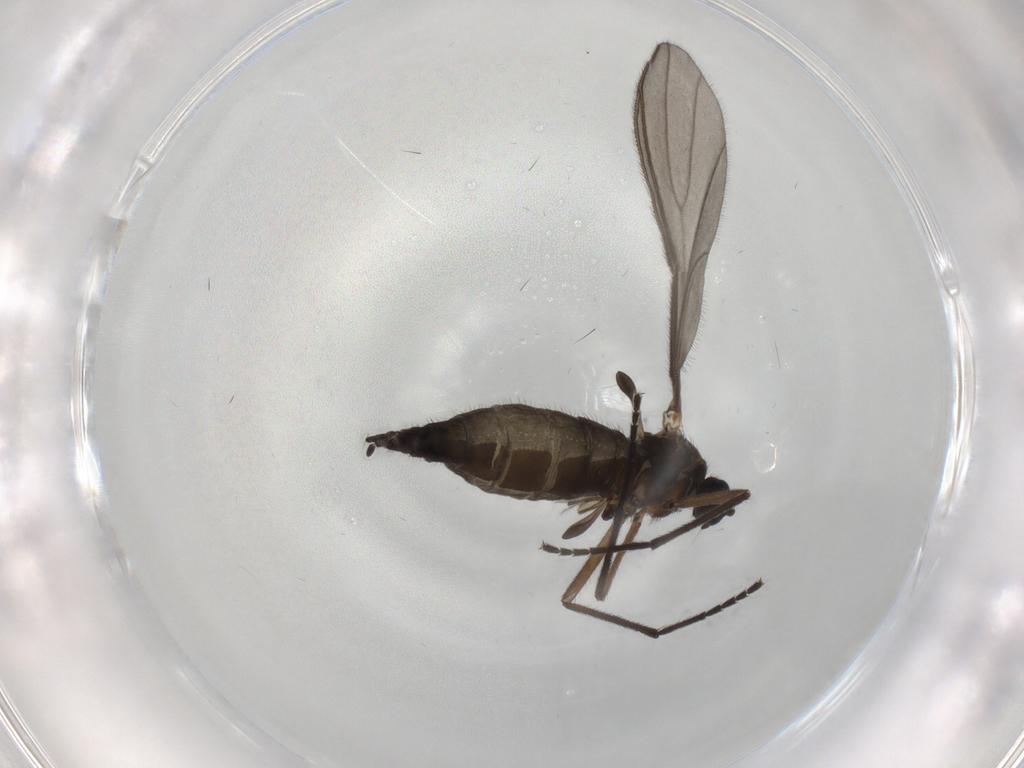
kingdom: Animalia
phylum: Arthropoda
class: Insecta
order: Diptera
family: Sciaridae
